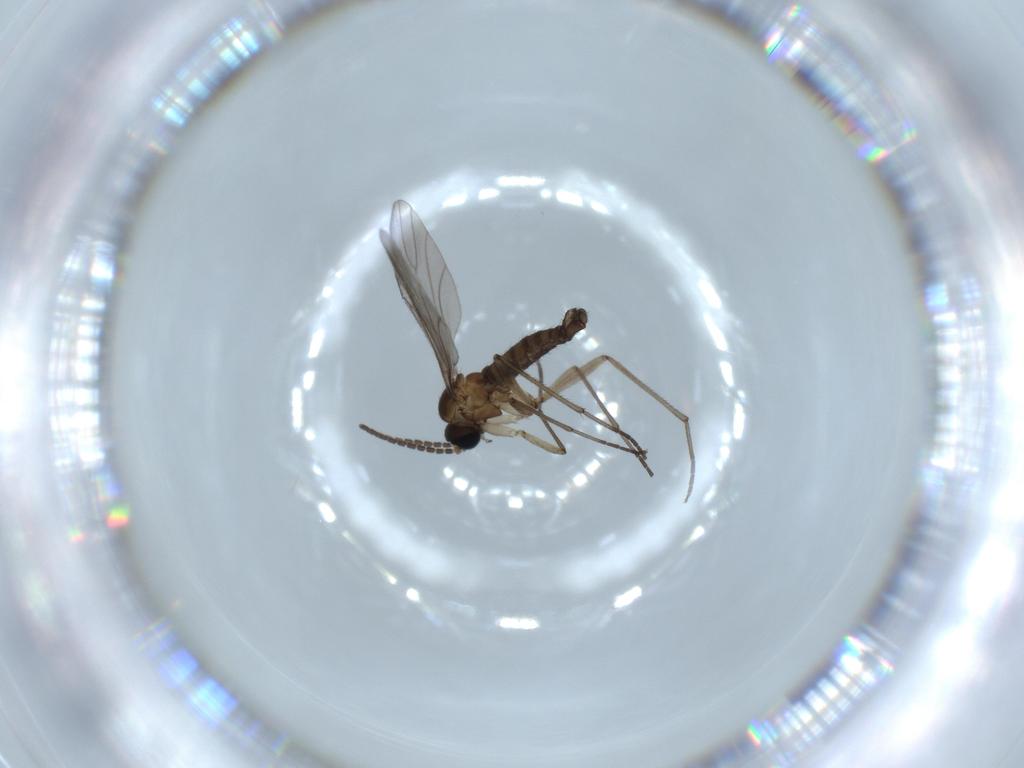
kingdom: Animalia
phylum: Arthropoda
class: Insecta
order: Diptera
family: Sciaridae
